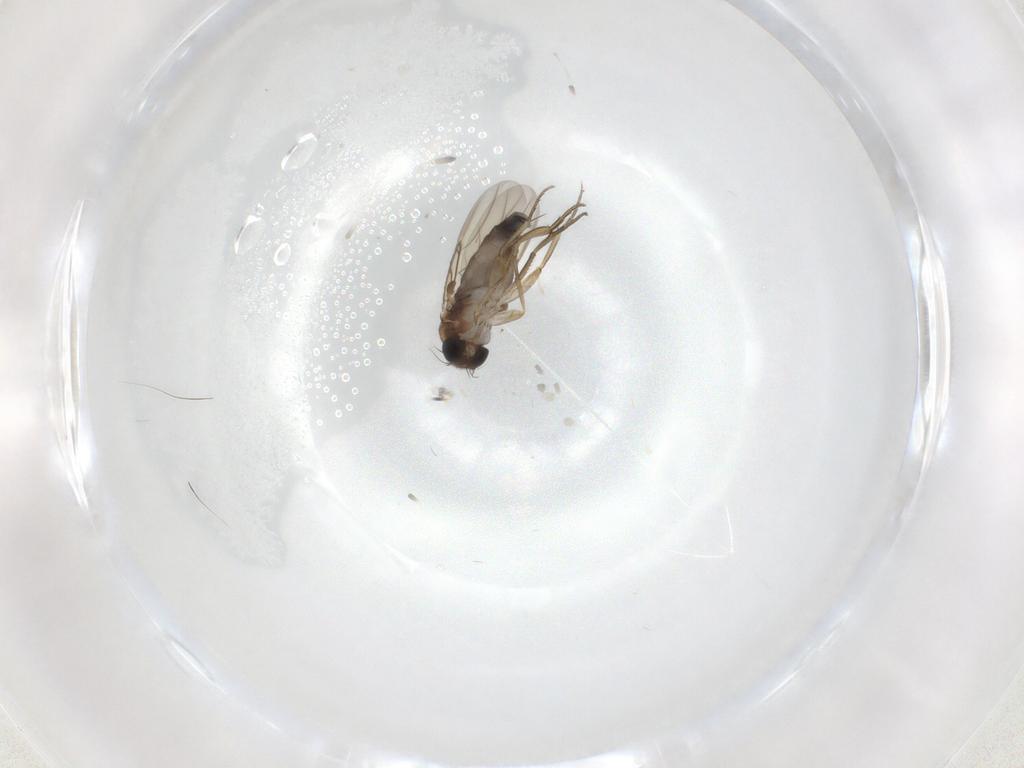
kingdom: Animalia
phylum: Arthropoda
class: Insecta
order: Diptera
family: Phoridae
